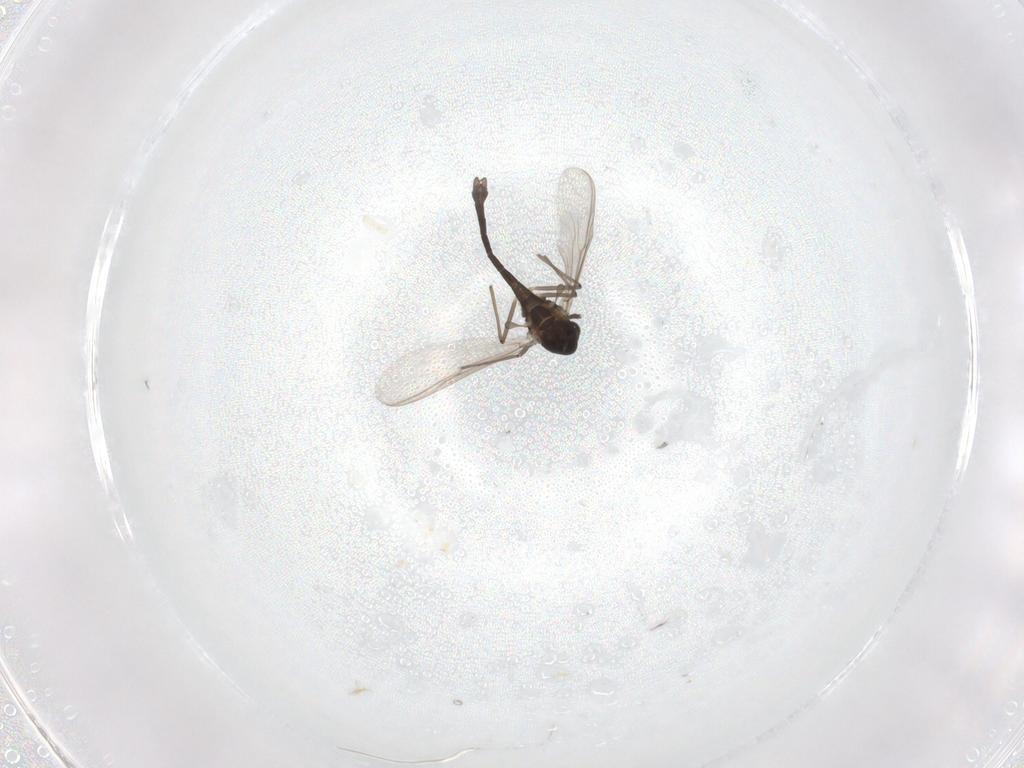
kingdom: Animalia
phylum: Arthropoda
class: Insecta
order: Diptera
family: Chironomidae
